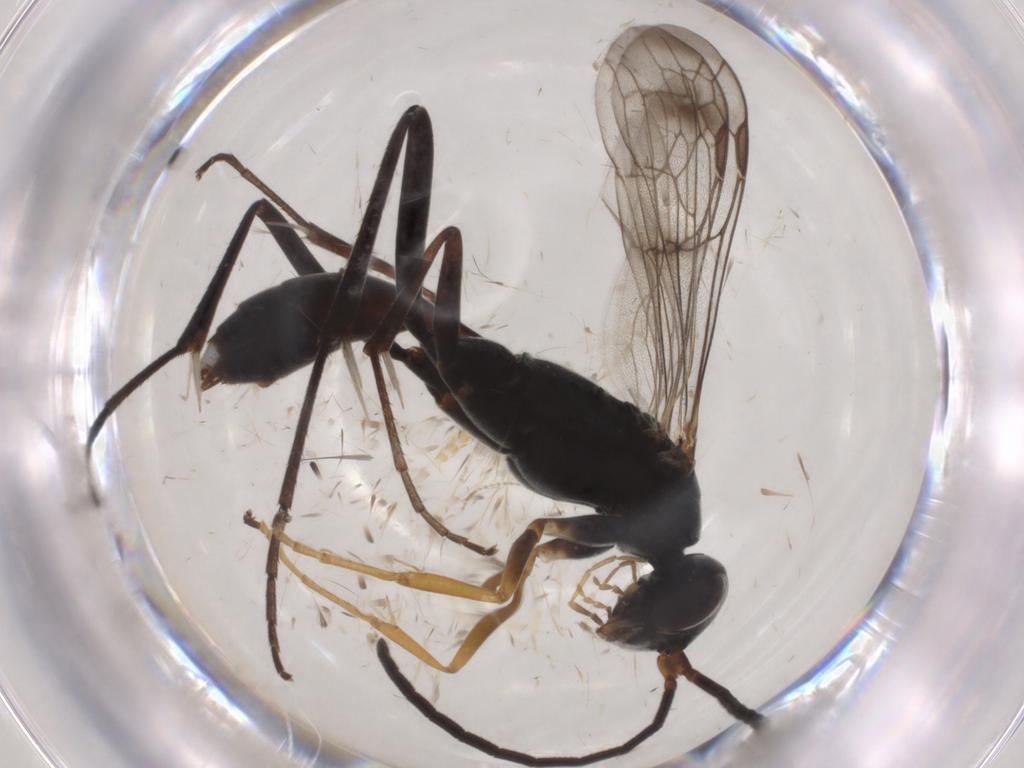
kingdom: Animalia
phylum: Arthropoda
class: Insecta
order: Hymenoptera
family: Pompilidae
